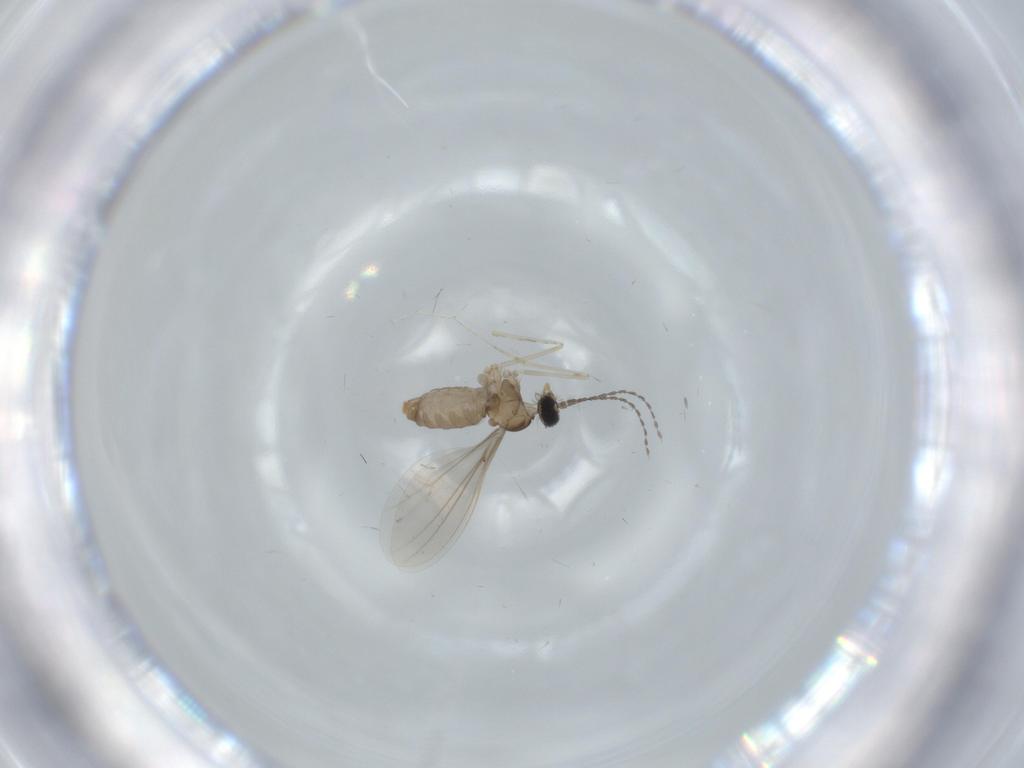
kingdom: Animalia
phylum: Arthropoda
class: Insecta
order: Diptera
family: Cecidomyiidae
